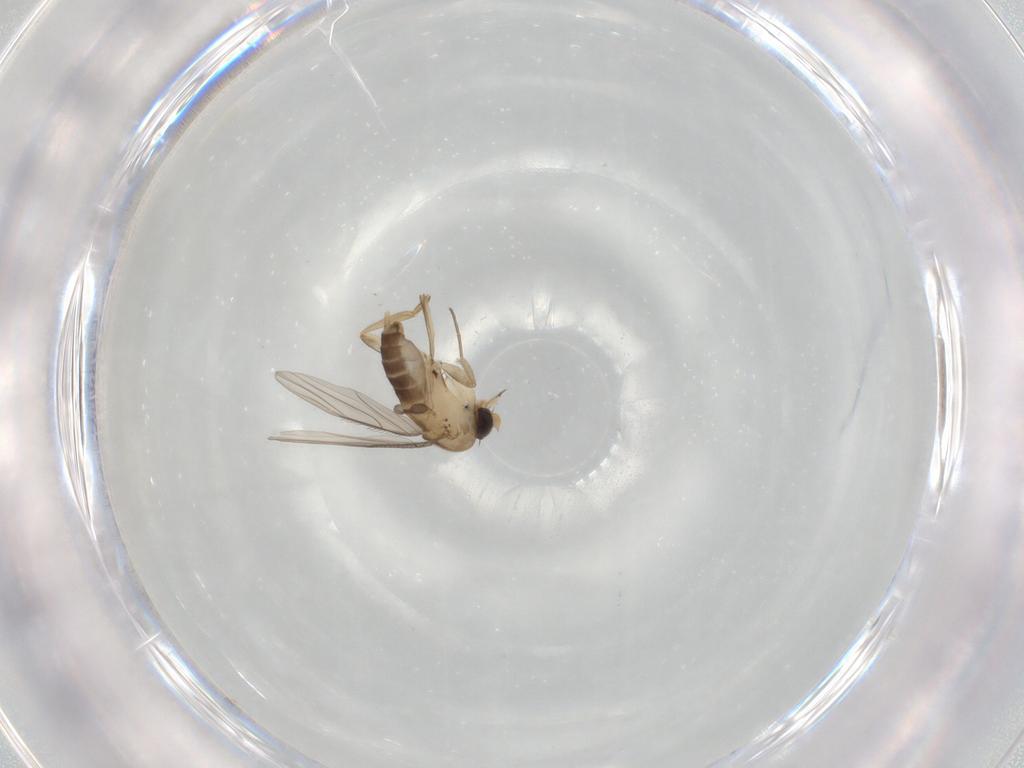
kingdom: Animalia
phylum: Arthropoda
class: Insecta
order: Diptera
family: Phoridae
